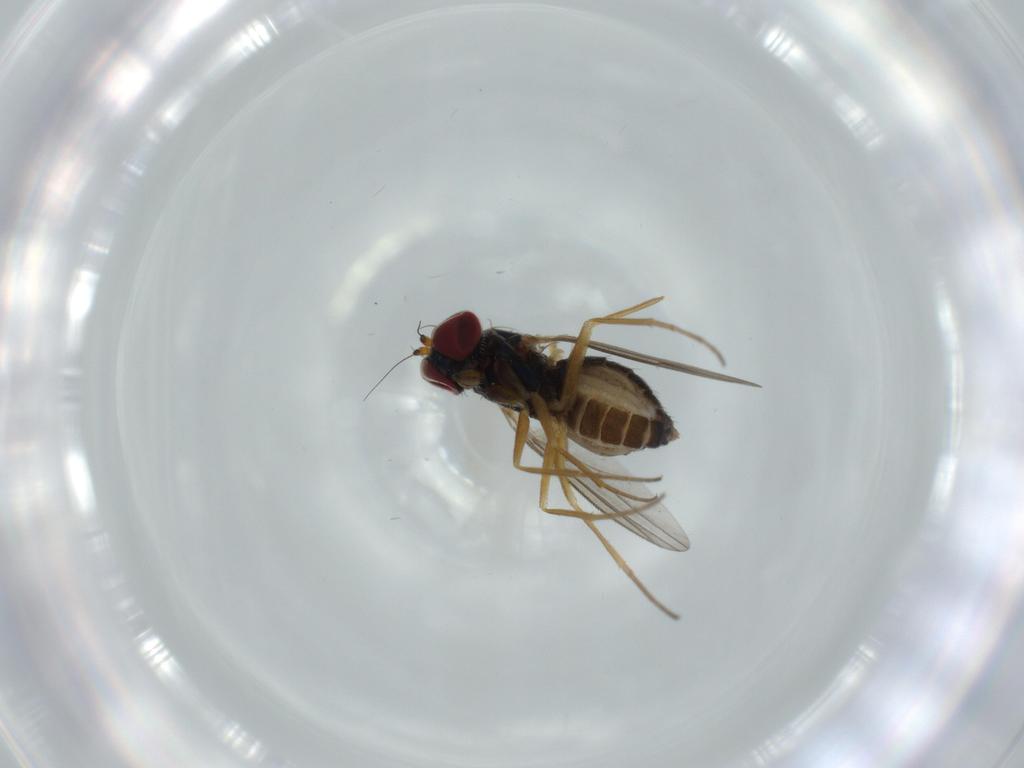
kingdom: Animalia
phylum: Arthropoda
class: Insecta
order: Diptera
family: Dolichopodidae
